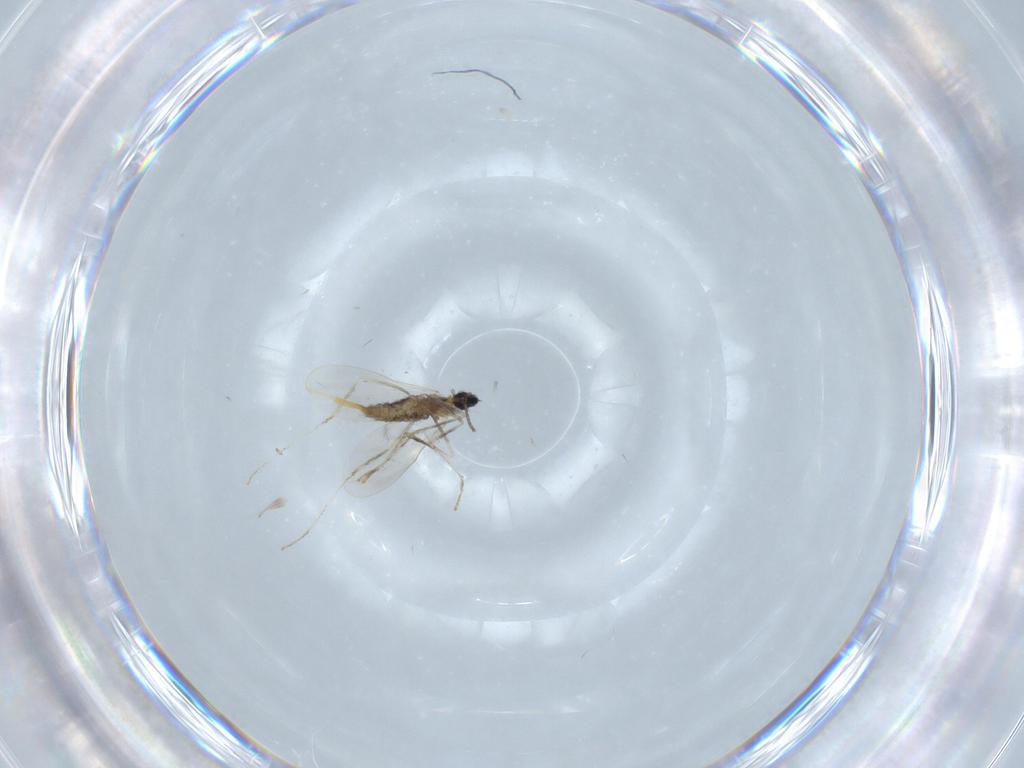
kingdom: Animalia
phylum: Arthropoda
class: Insecta
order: Diptera
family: Cecidomyiidae
